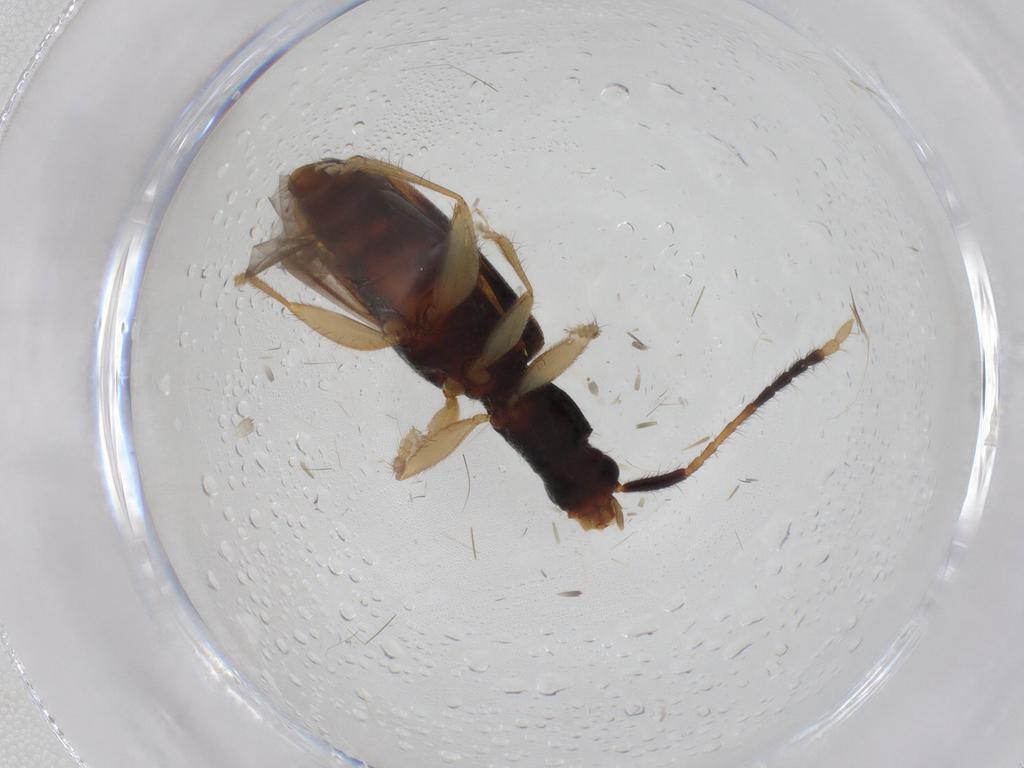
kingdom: Animalia
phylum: Arthropoda
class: Insecta
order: Coleoptera
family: Silvanidae
